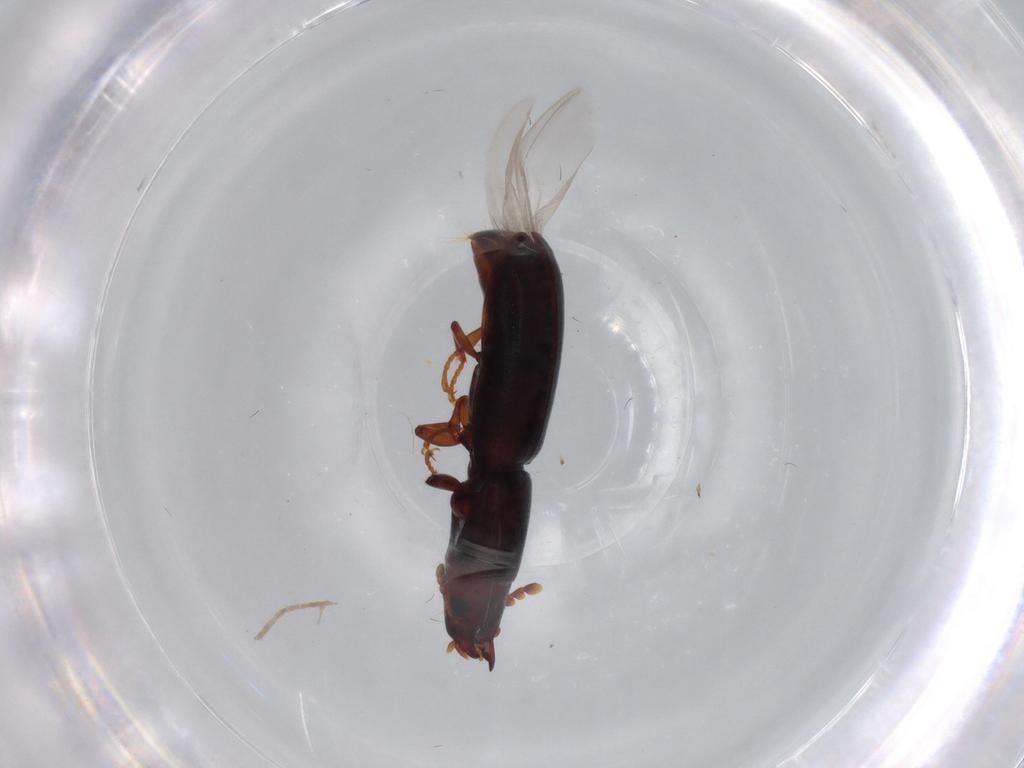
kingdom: Animalia
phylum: Arthropoda
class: Insecta
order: Coleoptera
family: Chrysomelidae
